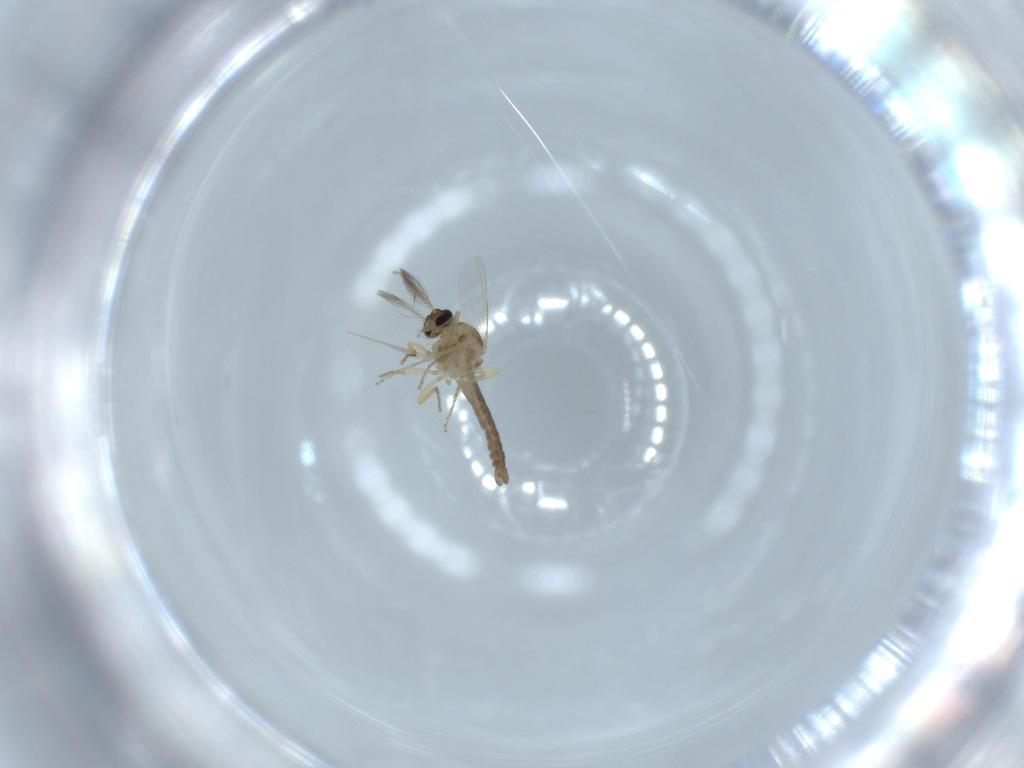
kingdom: Animalia
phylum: Arthropoda
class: Insecta
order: Diptera
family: Ceratopogonidae
